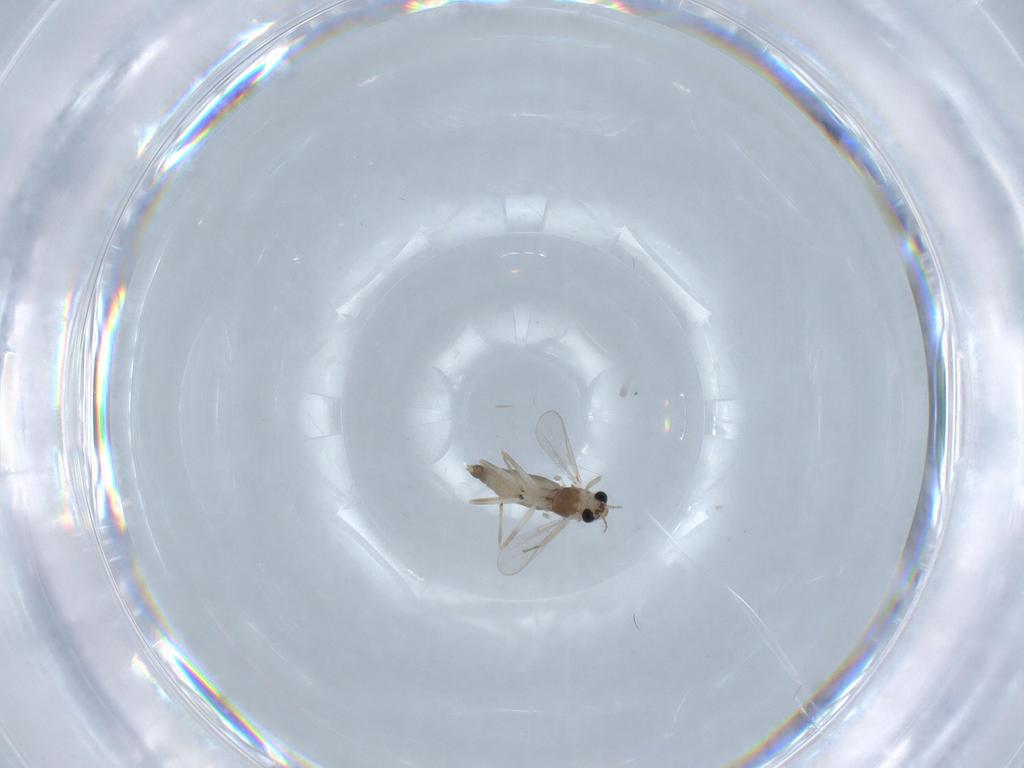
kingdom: Animalia
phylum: Arthropoda
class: Insecta
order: Diptera
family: Chironomidae
